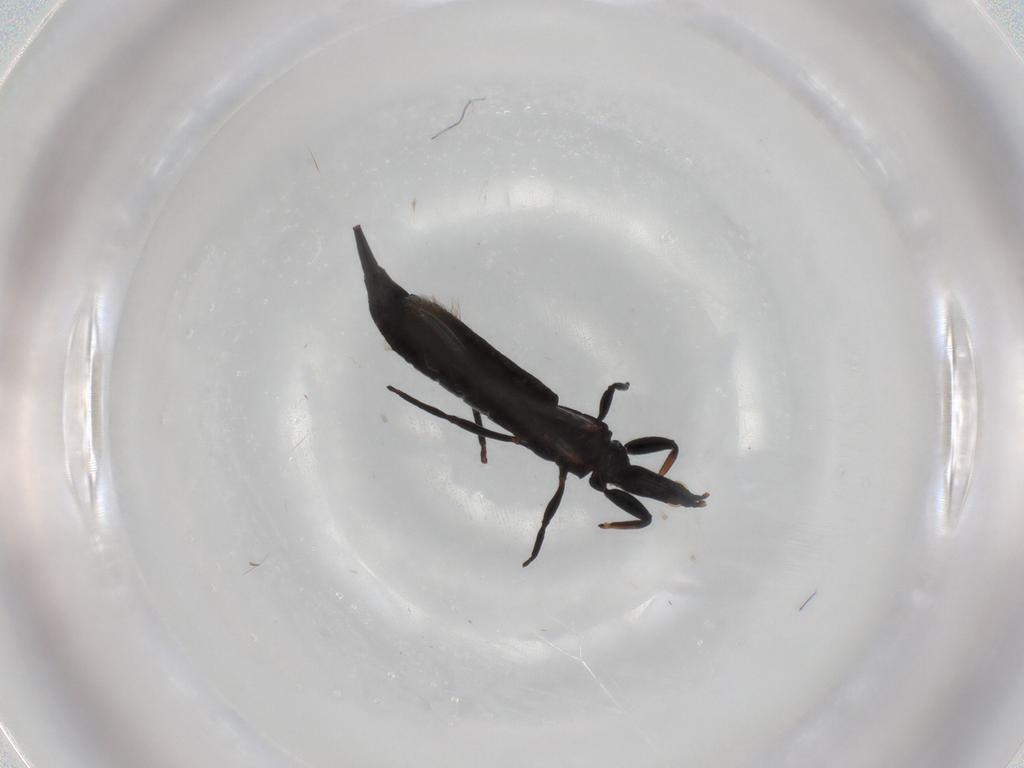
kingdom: Animalia
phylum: Arthropoda
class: Insecta
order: Thysanoptera
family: Phlaeothripidae
